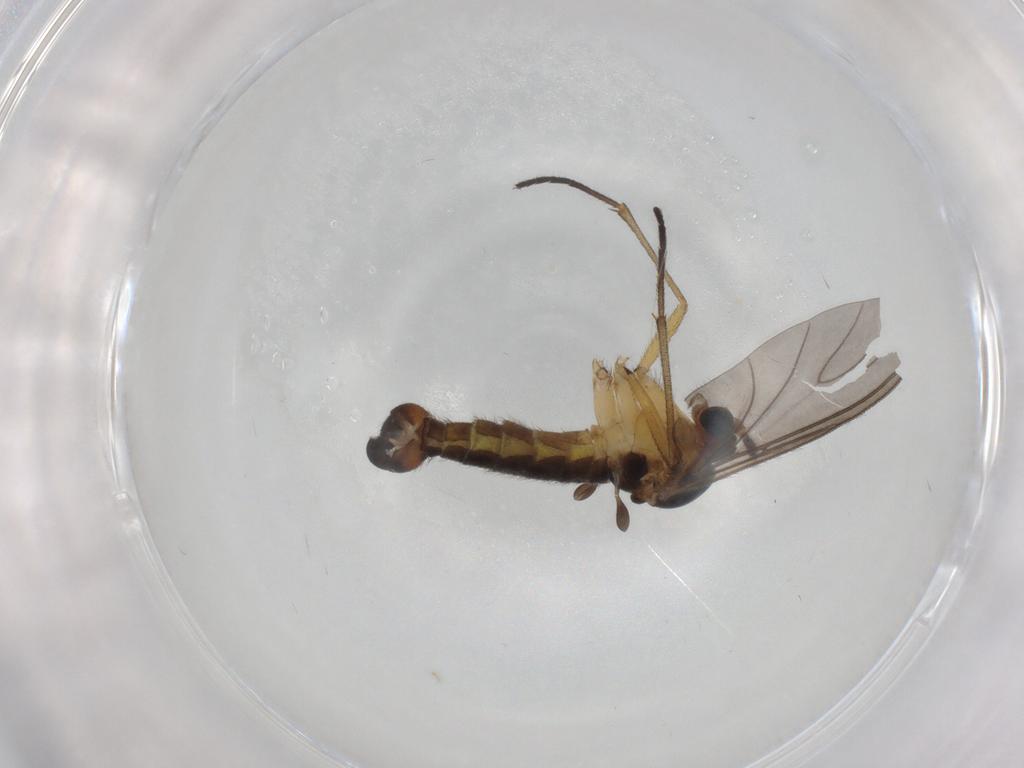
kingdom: Animalia
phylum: Arthropoda
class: Insecta
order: Diptera
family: Sciaridae
